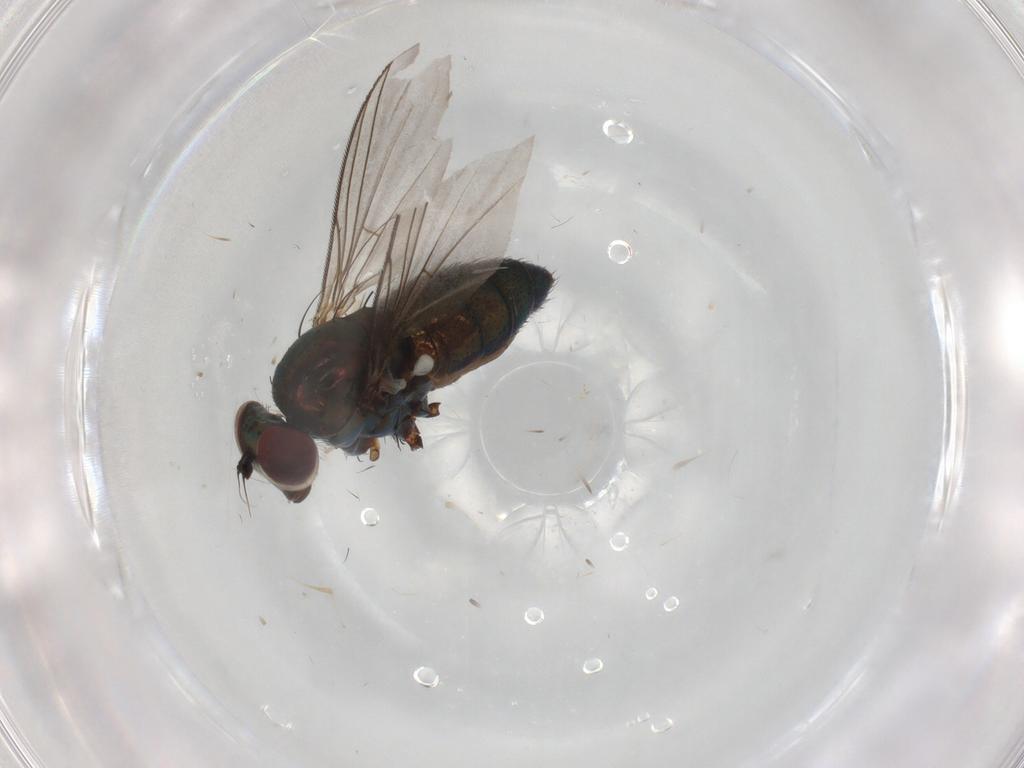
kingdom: Animalia
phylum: Arthropoda
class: Insecta
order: Diptera
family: Dolichopodidae
